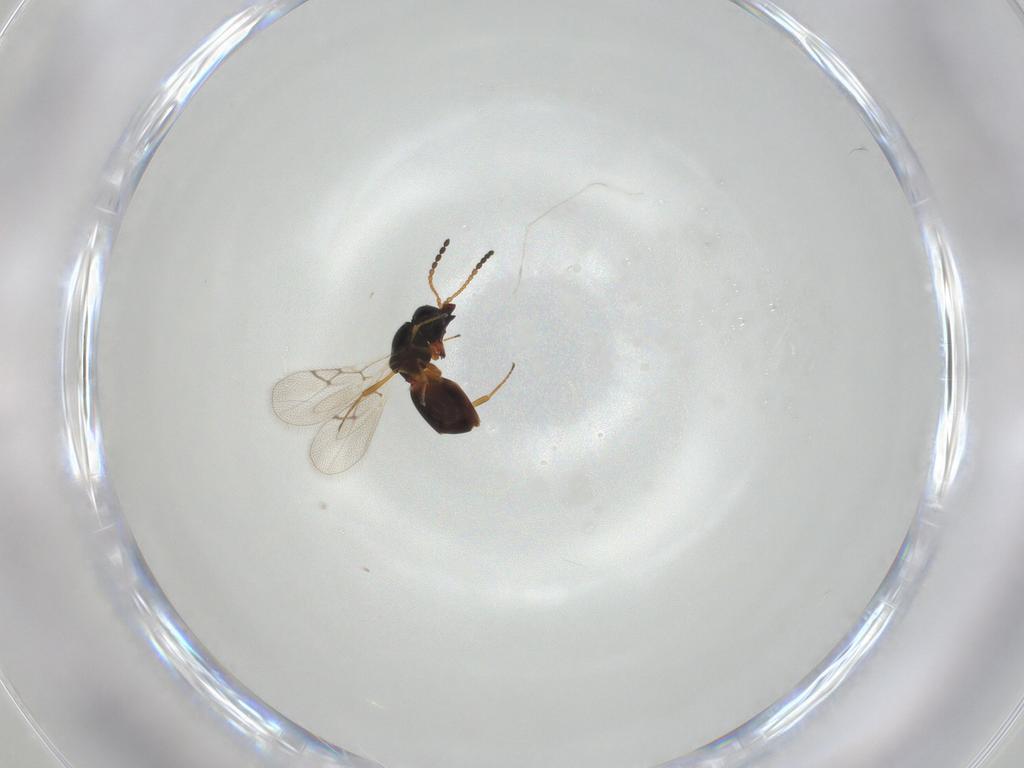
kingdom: Animalia
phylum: Arthropoda
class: Insecta
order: Hymenoptera
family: Figitidae
